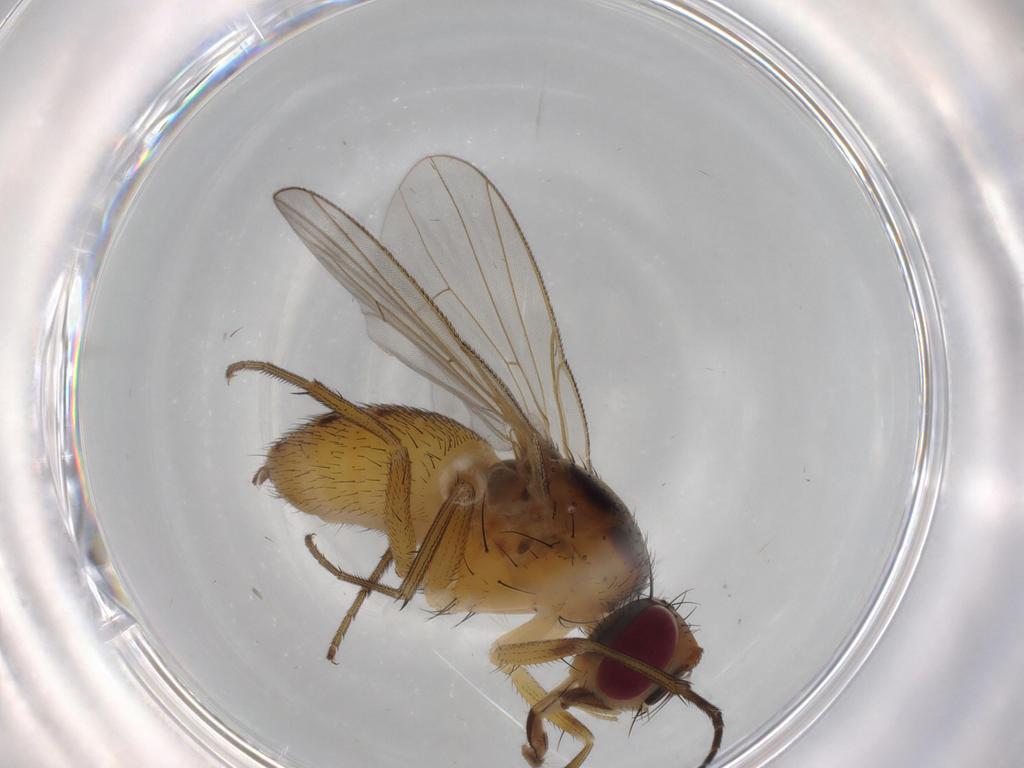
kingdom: Animalia
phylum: Arthropoda
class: Insecta
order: Diptera
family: Muscidae
